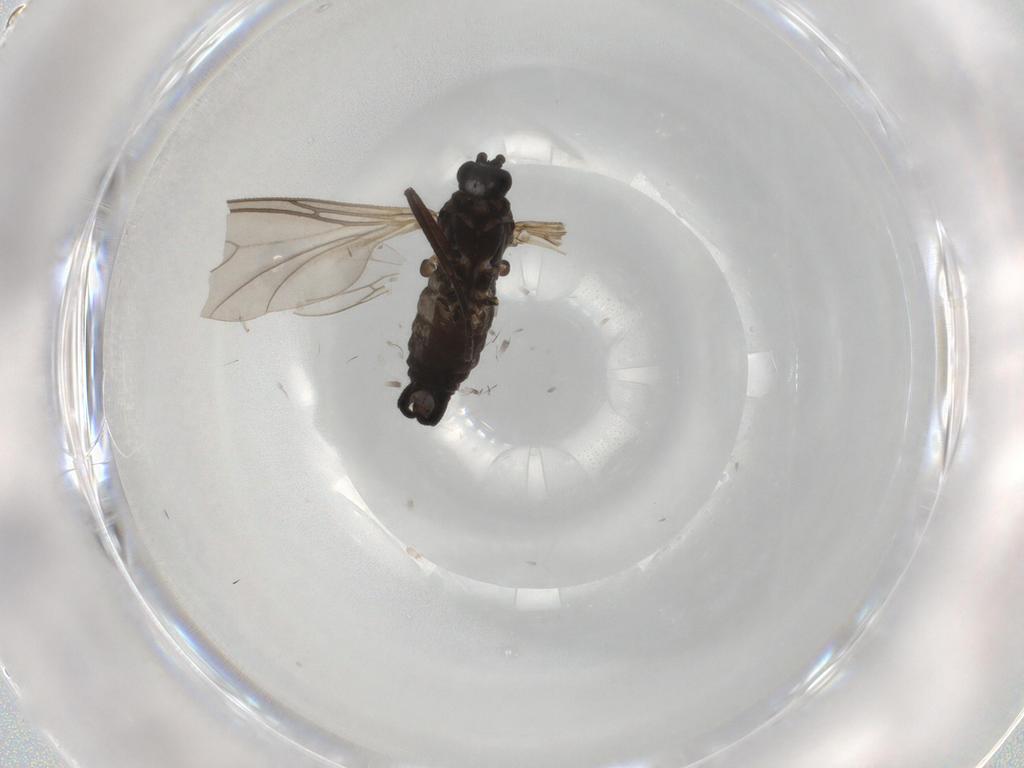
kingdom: Animalia
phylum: Arthropoda
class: Insecta
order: Diptera
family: Sciaridae
